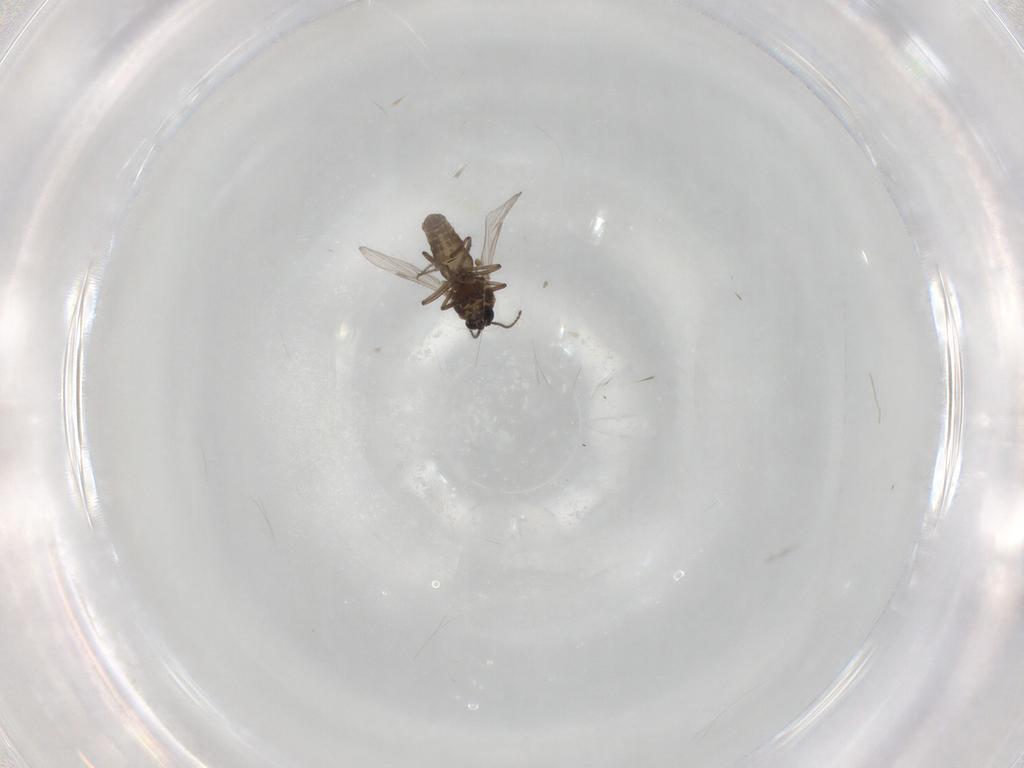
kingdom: Animalia
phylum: Arthropoda
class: Insecta
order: Diptera
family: Ceratopogonidae
